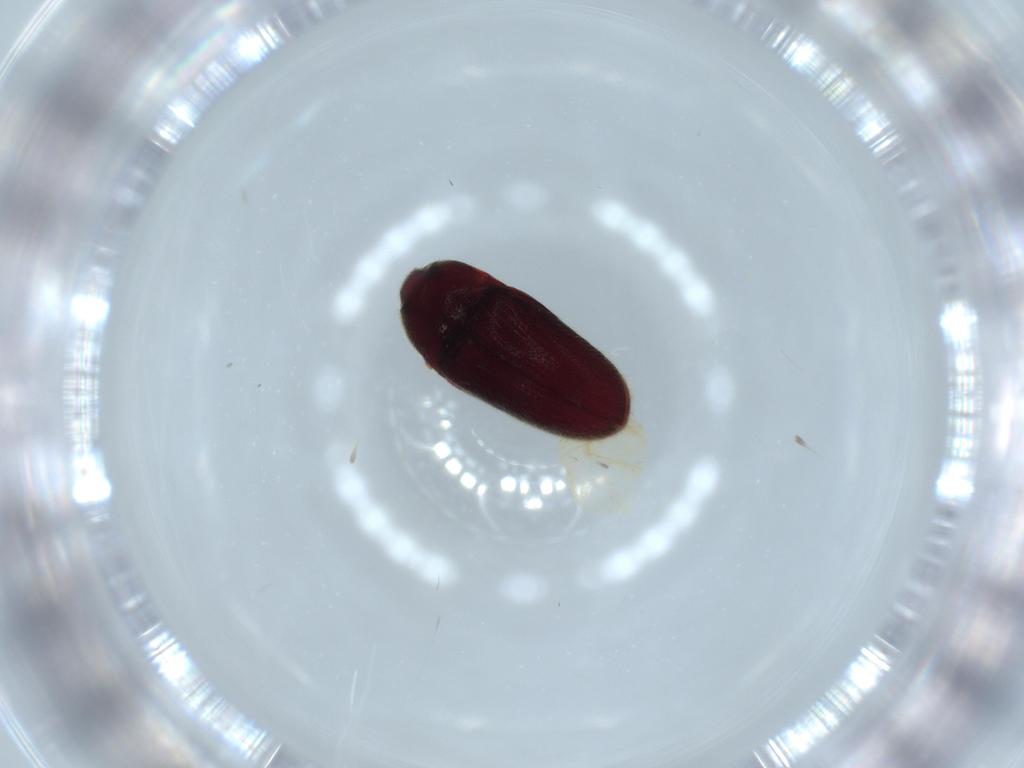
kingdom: Animalia
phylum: Arthropoda
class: Insecta
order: Coleoptera
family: Throscidae
